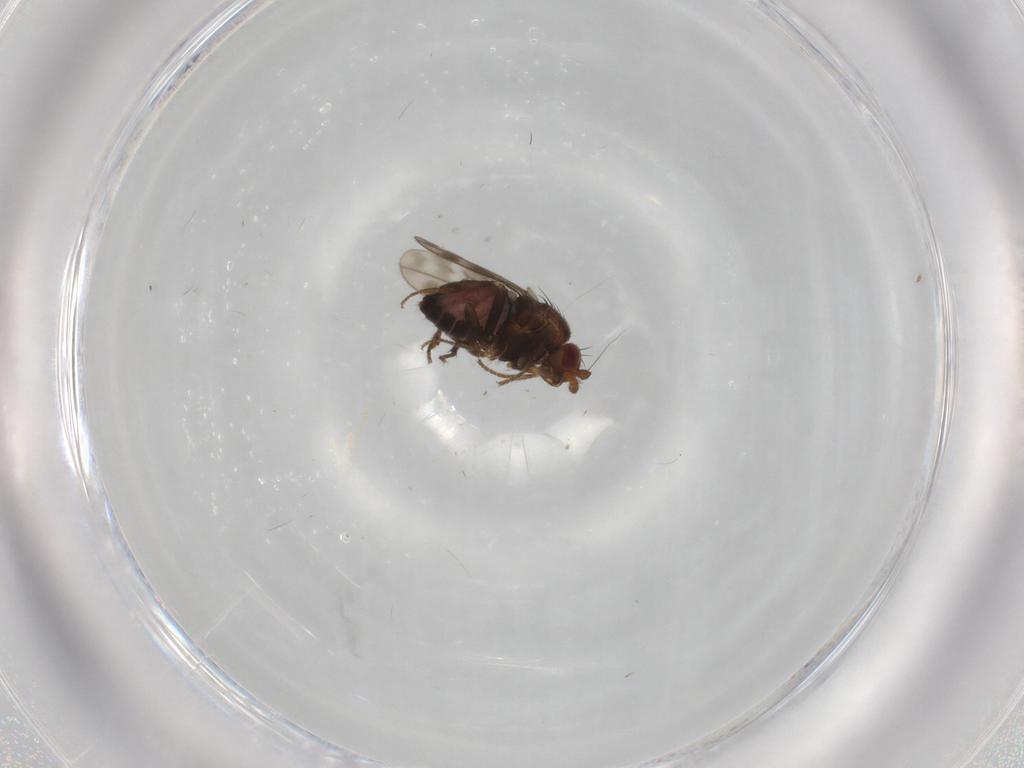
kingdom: Animalia
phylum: Arthropoda
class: Insecta
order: Diptera
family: Sphaeroceridae
